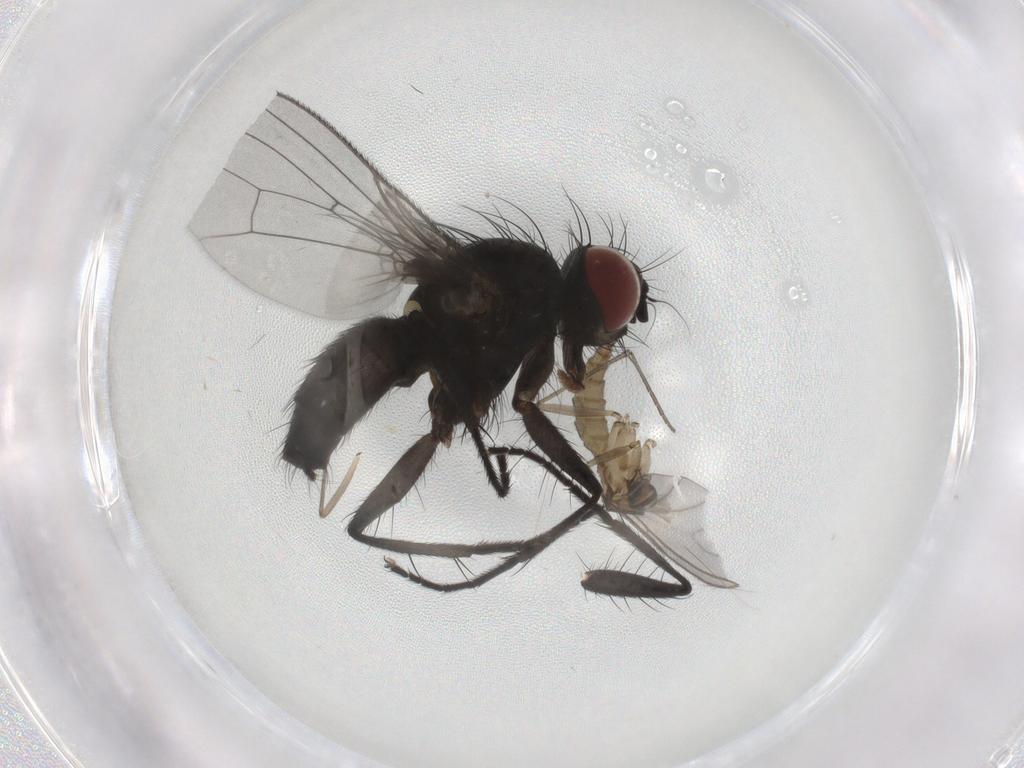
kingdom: Animalia
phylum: Arthropoda
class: Insecta
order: Diptera
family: Muscidae
